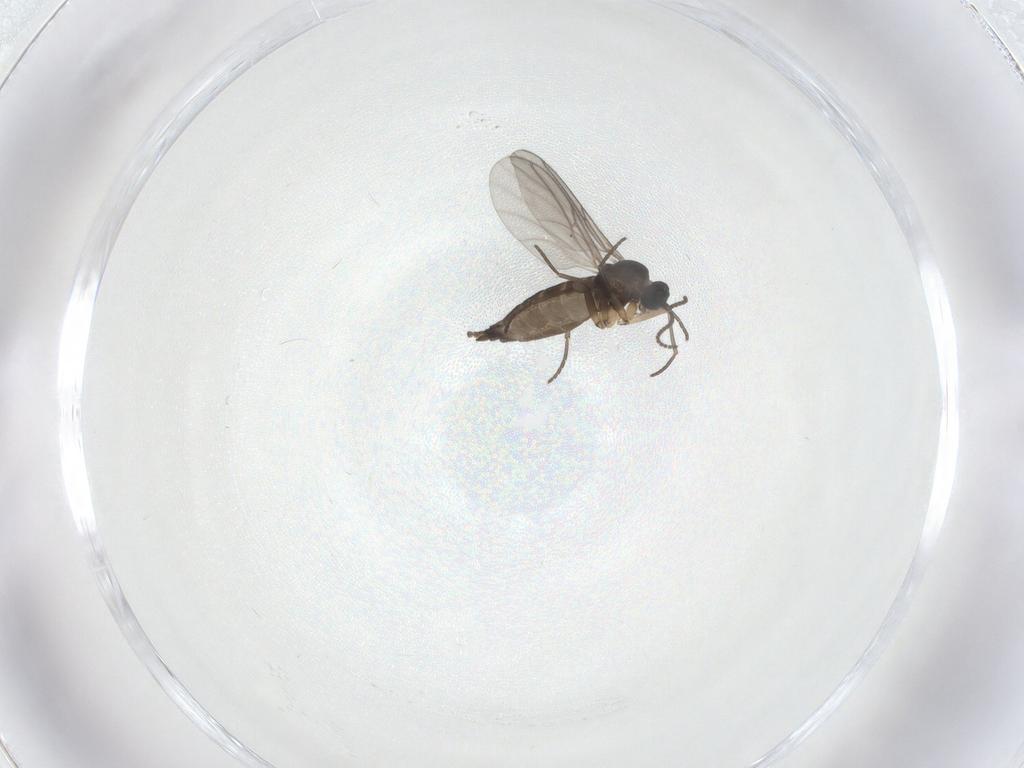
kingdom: Animalia
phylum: Arthropoda
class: Insecta
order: Diptera
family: Sciaridae
